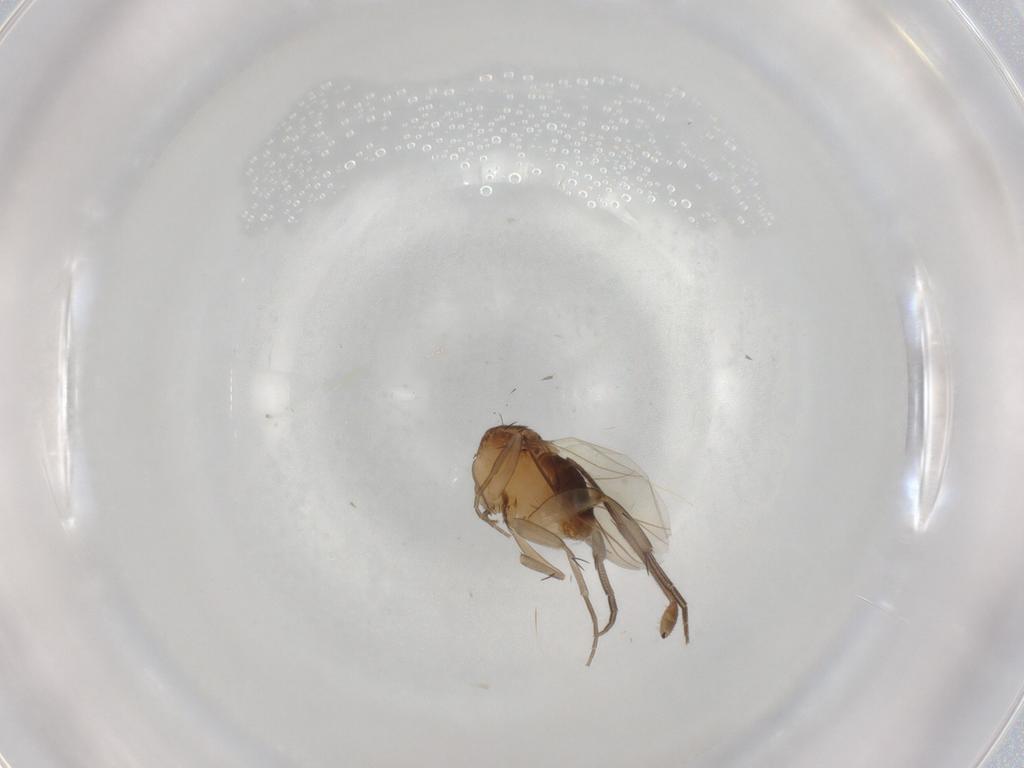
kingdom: Animalia
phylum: Arthropoda
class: Insecta
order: Diptera
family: Phoridae
